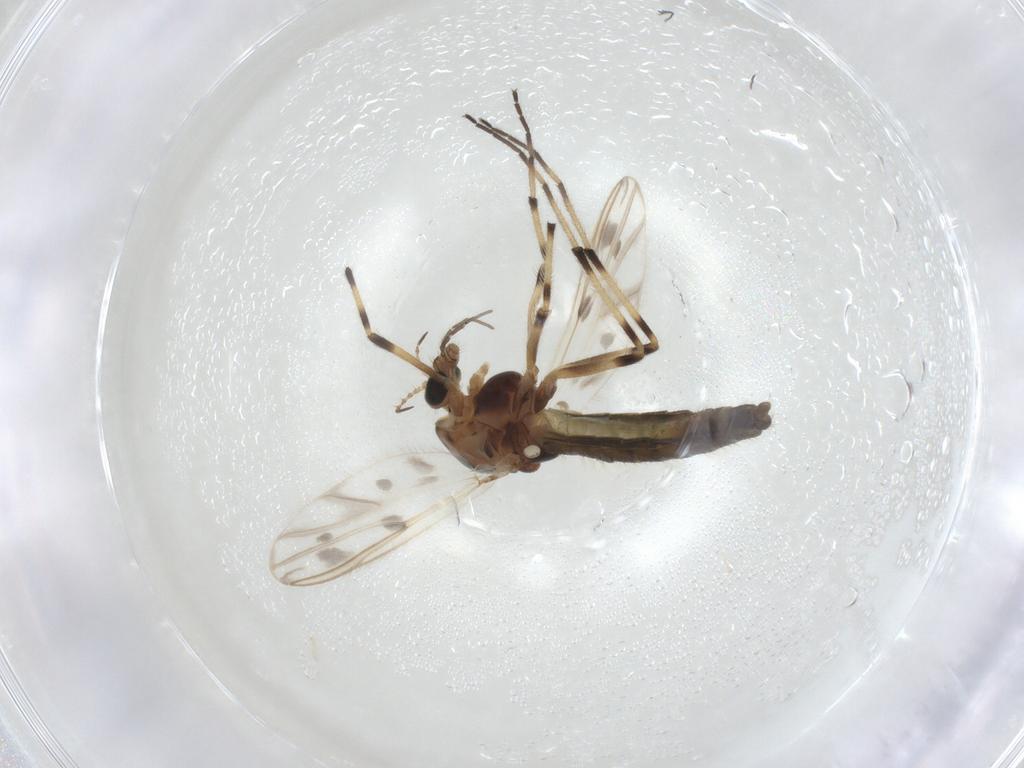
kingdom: Animalia
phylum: Arthropoda
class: Insecta
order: Diptera
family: Chironomidae
